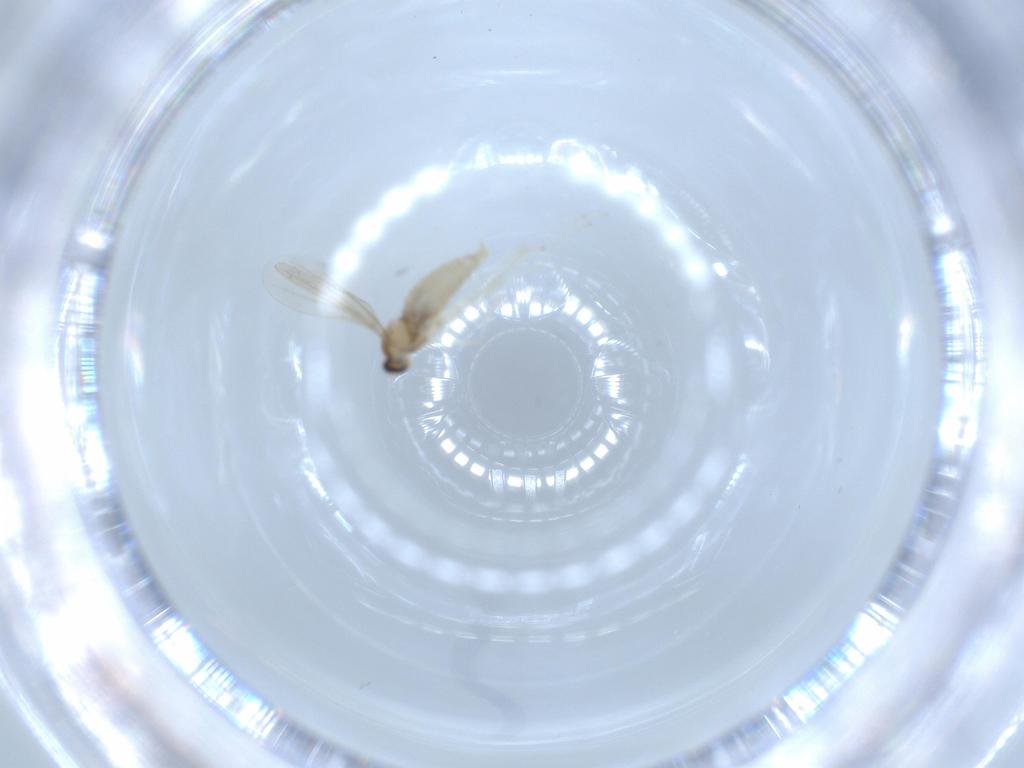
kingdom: Animalia
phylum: Arthropoda
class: Insecta
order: Diptera
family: Cecidomyiidae
